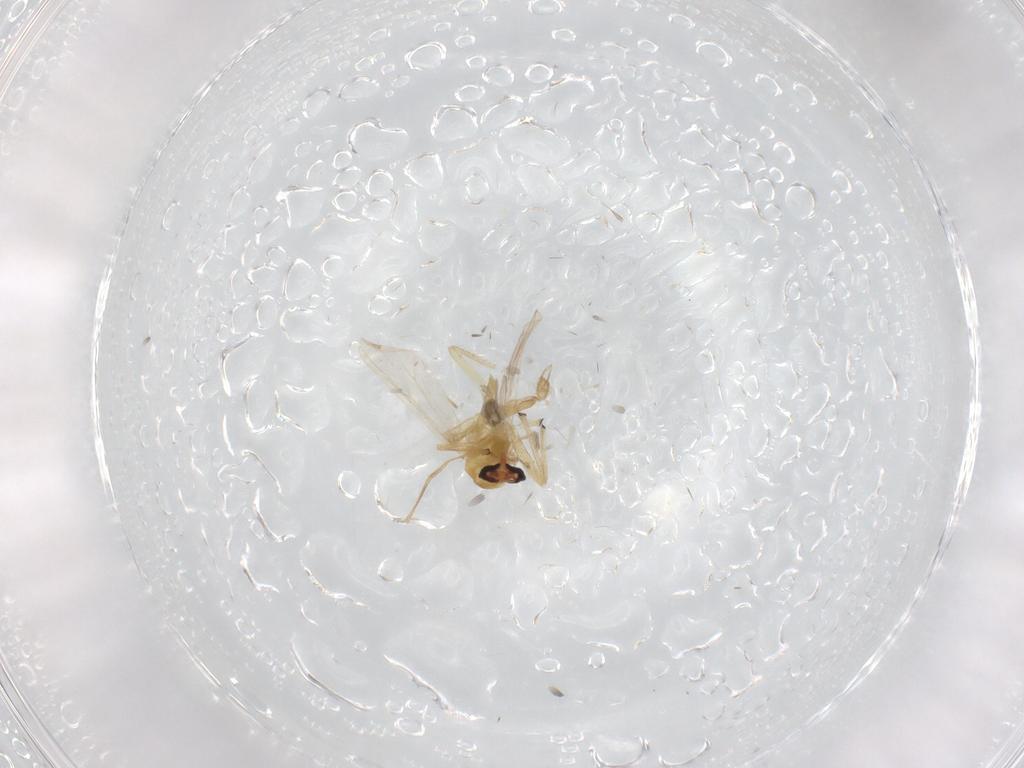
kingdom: Animalia
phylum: Arthropoda
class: Insecta
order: Diptera
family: Chironomidae
